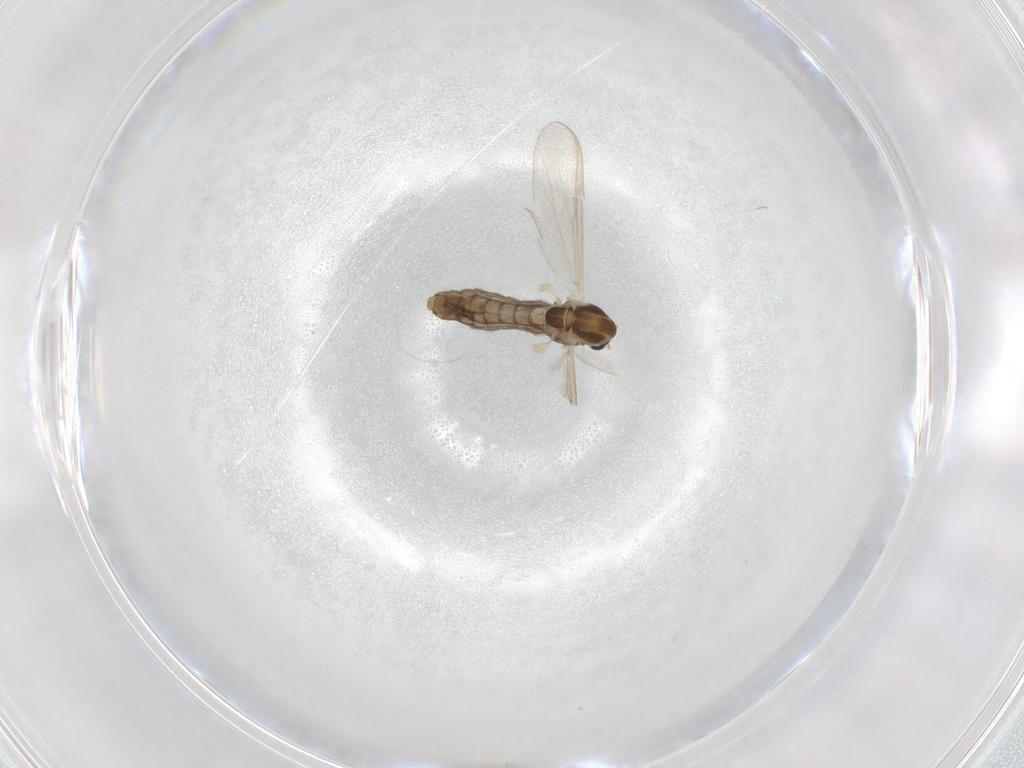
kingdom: Animalia
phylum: Arthropoda
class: Insecta
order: Diptera
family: Chironomidae
